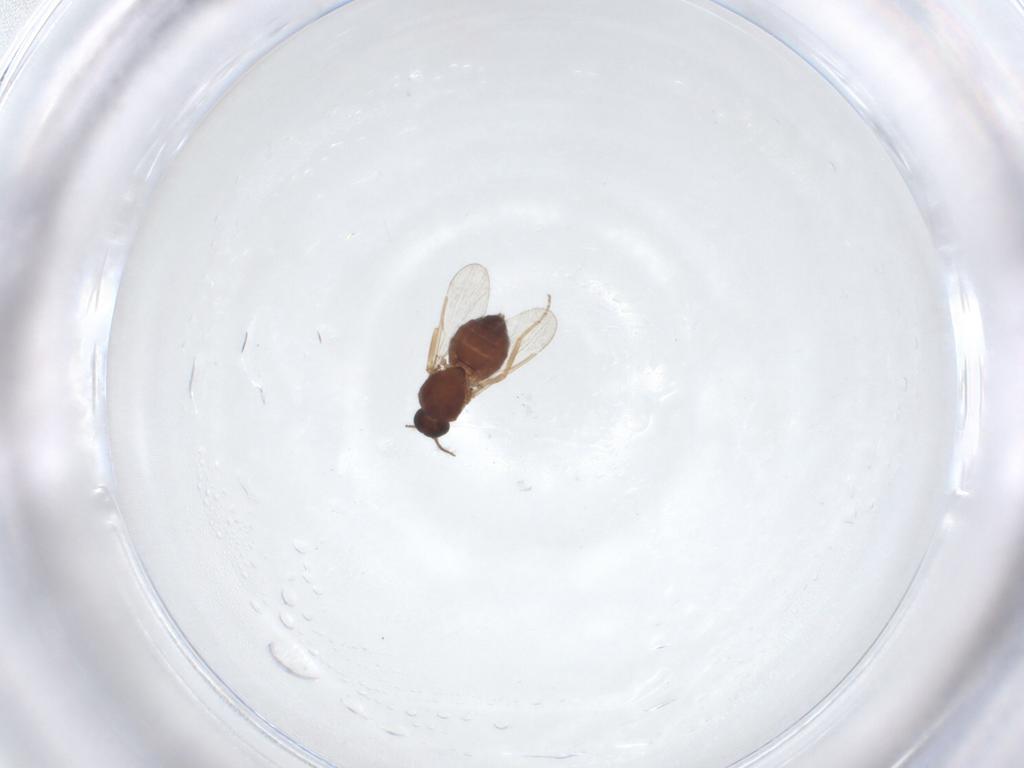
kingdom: Animalia
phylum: Arthropoda
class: Insecta
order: Diptera
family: Ceratopogonidae
